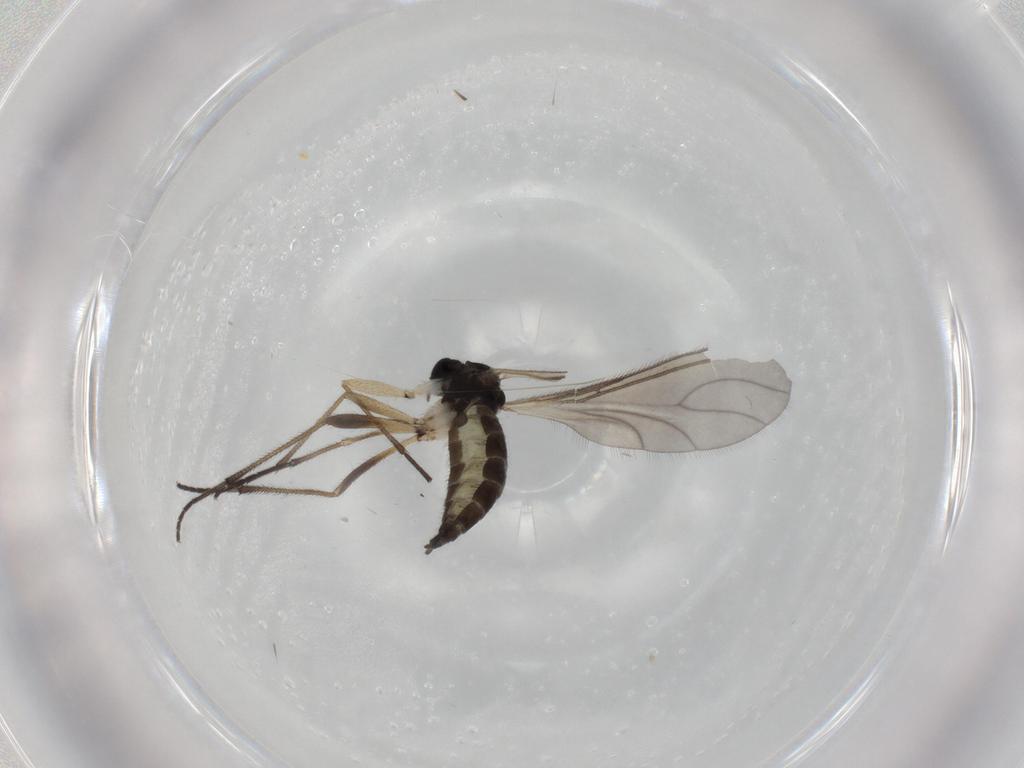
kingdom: Animalia
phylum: Arthropoda
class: Insecta
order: Diptera
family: Sciaridae
